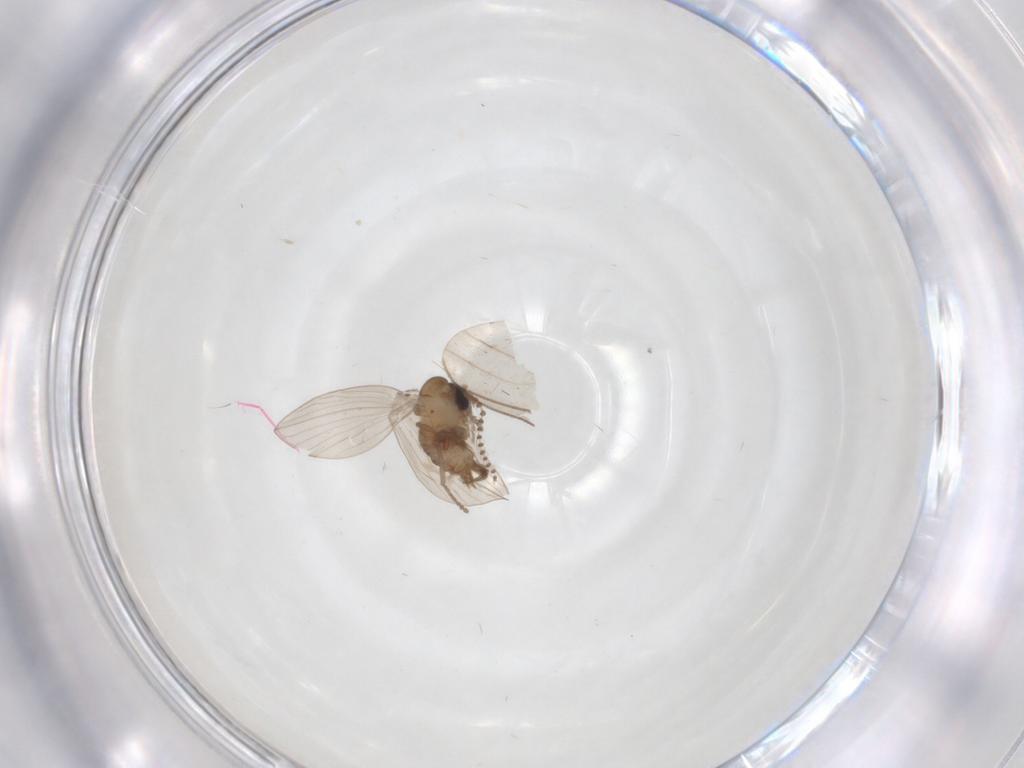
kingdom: Animalia
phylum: Arthropoda
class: Insecta
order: Diptera
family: Psychodidae
